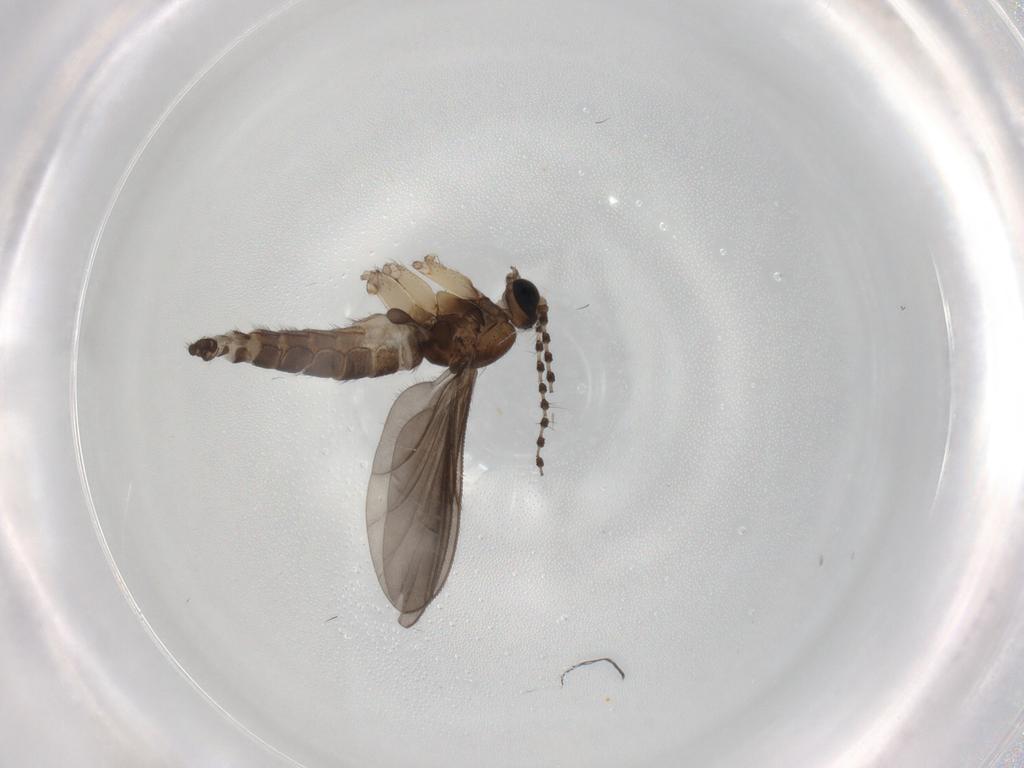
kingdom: Animalia
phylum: Arthropoda
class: Insecta
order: Diptera
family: Sciaridae
